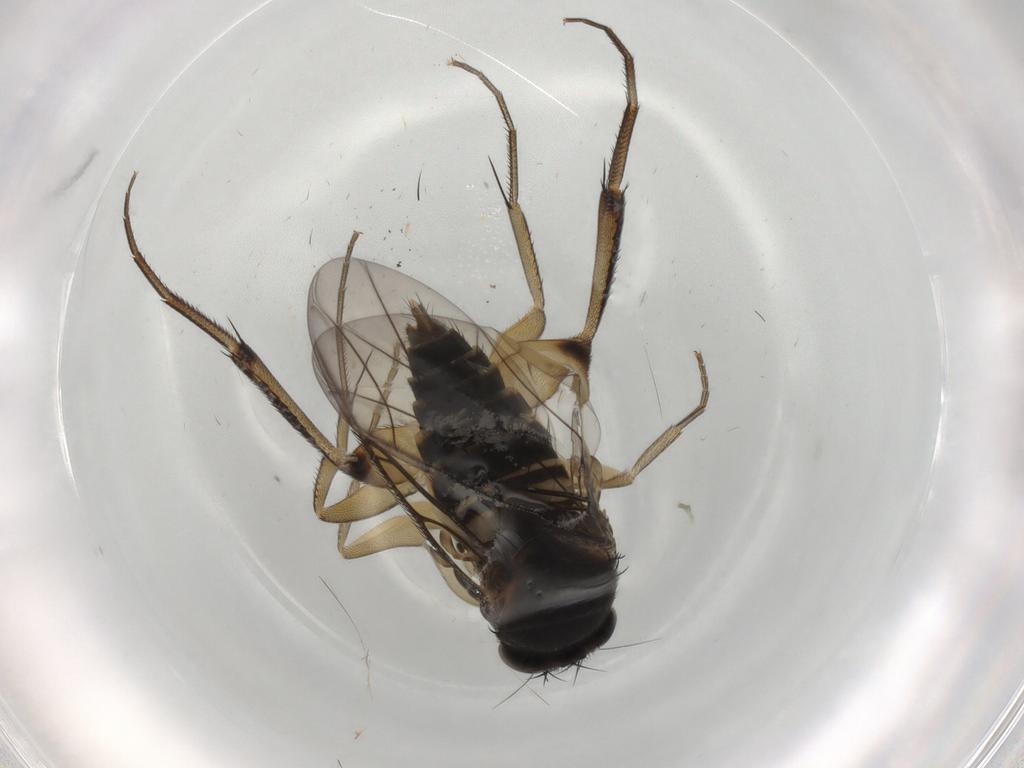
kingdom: Animalia
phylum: Arthropoda
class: Insecta
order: Diptera
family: Phoridae
